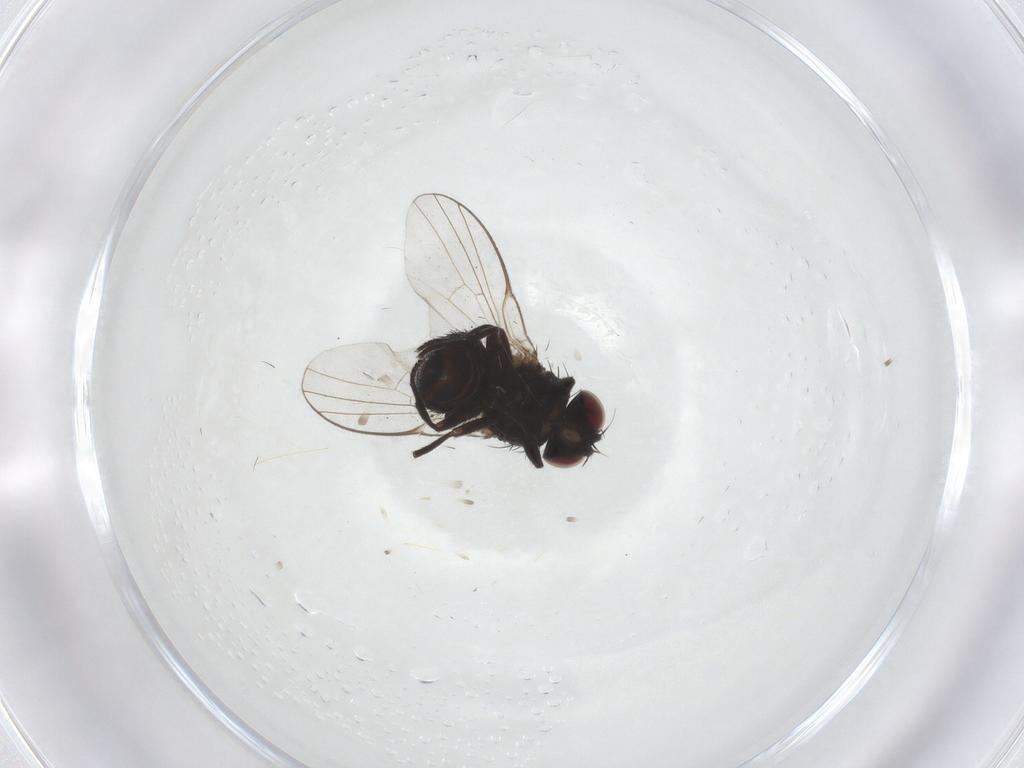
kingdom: Animalia
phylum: Arthropoda
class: Insecta
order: Diptera
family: Agromyzidae
